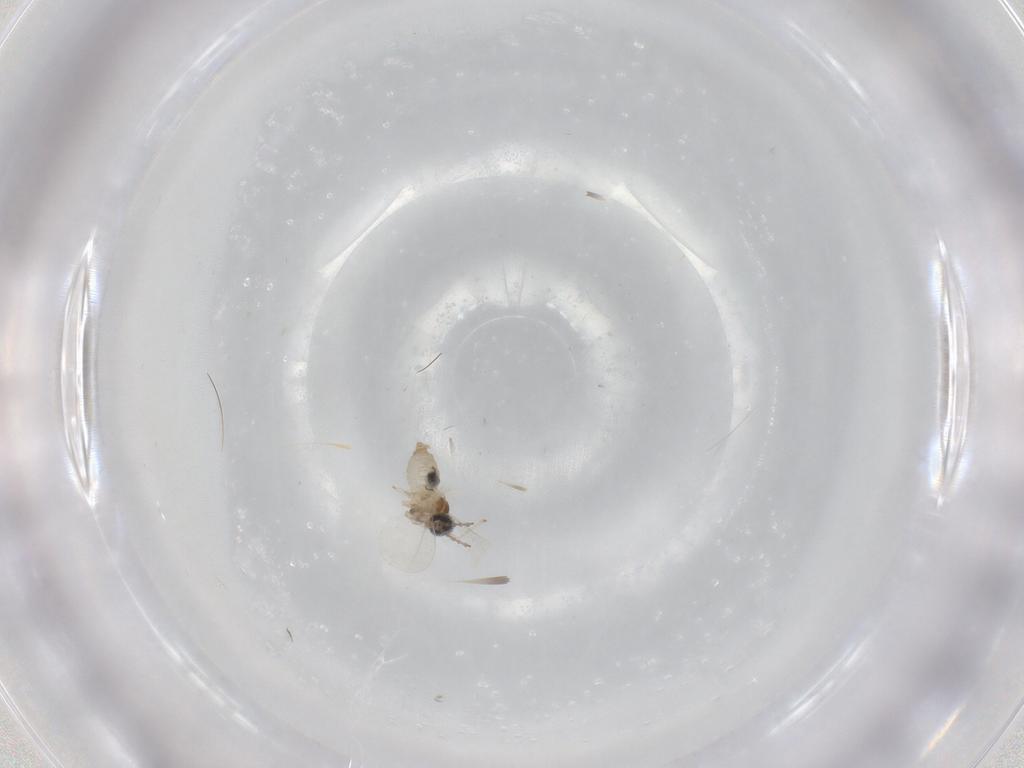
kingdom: Animalia
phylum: Arthropoda
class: Insecta
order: Diptera
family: Cecidomyiidae
